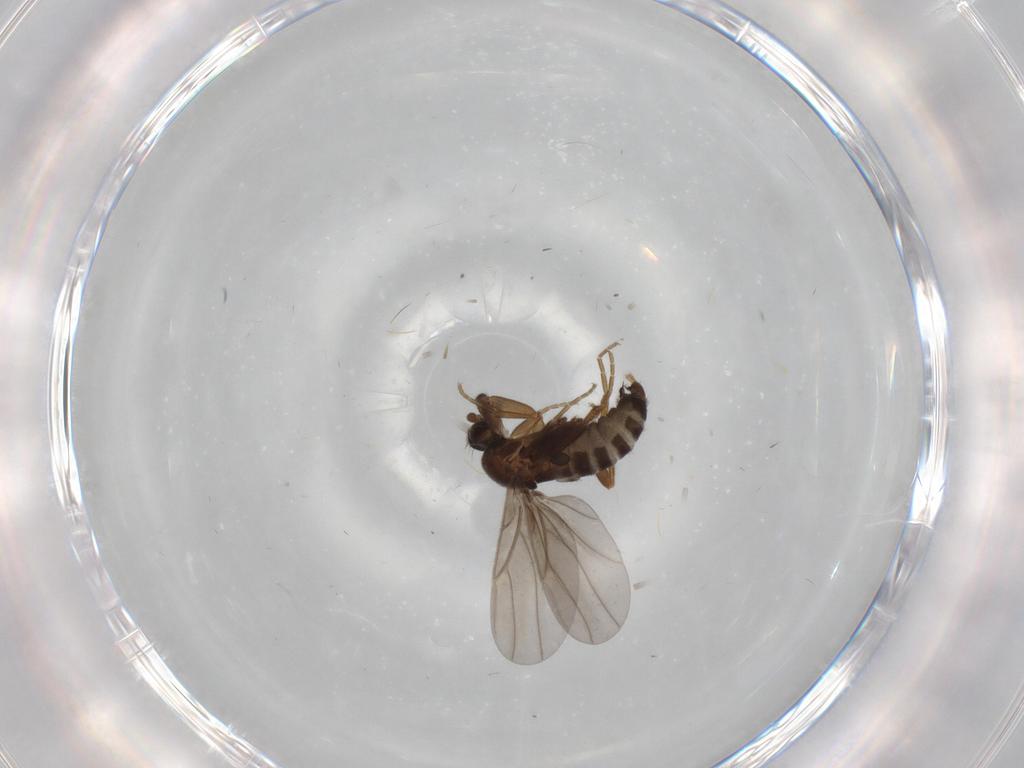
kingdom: Animalia
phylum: Arthropoda
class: Insecta
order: Diptera
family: Phoridae
